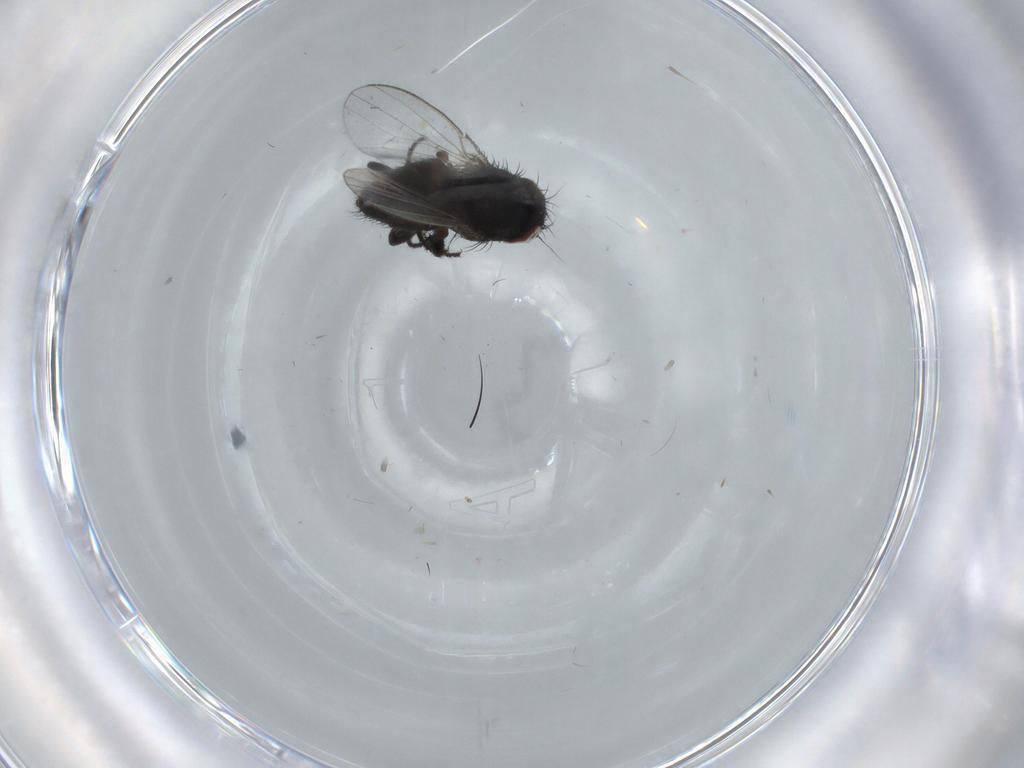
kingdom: Animalia
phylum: Arthropoda
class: Insecta
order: Diptera
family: Milichiidae
